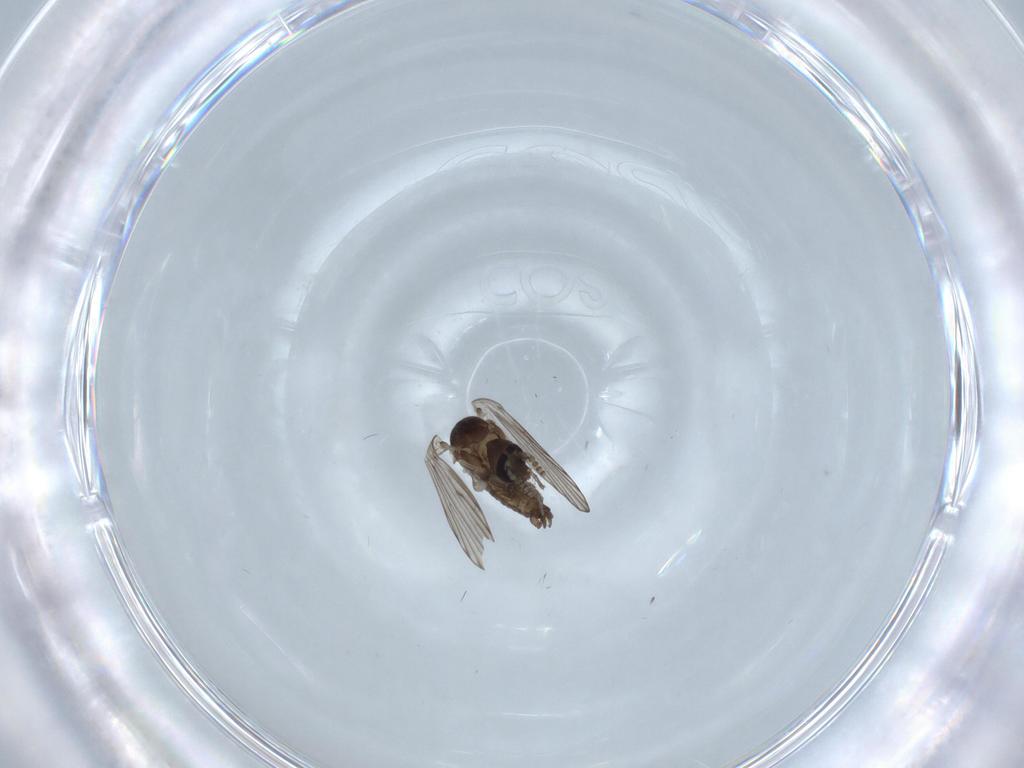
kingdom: Animalia
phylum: Arthropoda
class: Insecta
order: Diptera
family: Psychodidae
